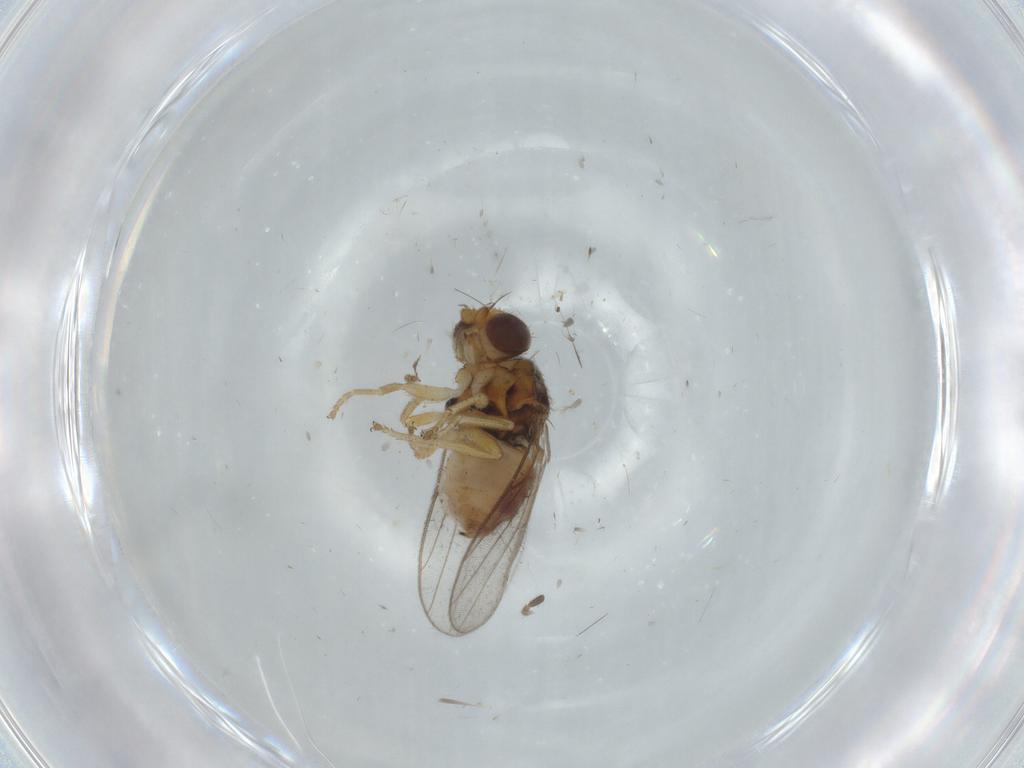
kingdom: Animalia
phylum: Arthropoda
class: Insecta
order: Diptera
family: Chloropidae
